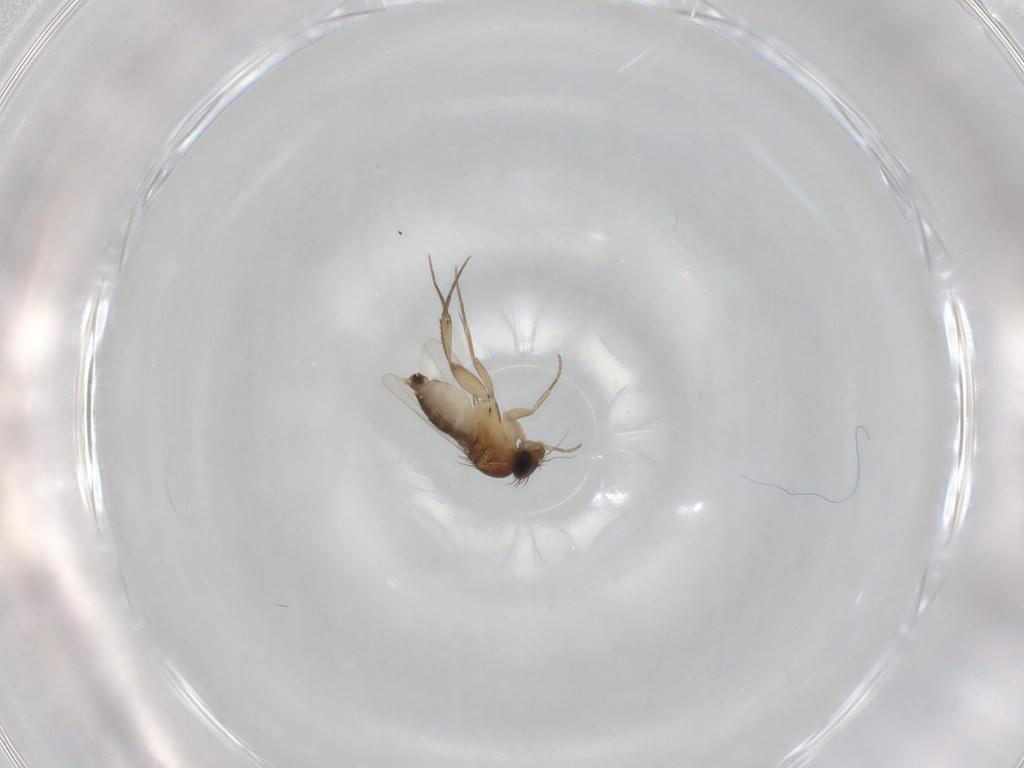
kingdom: Animalia
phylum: Arthropoda
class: Insecta
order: Diptera
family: Phoridae
